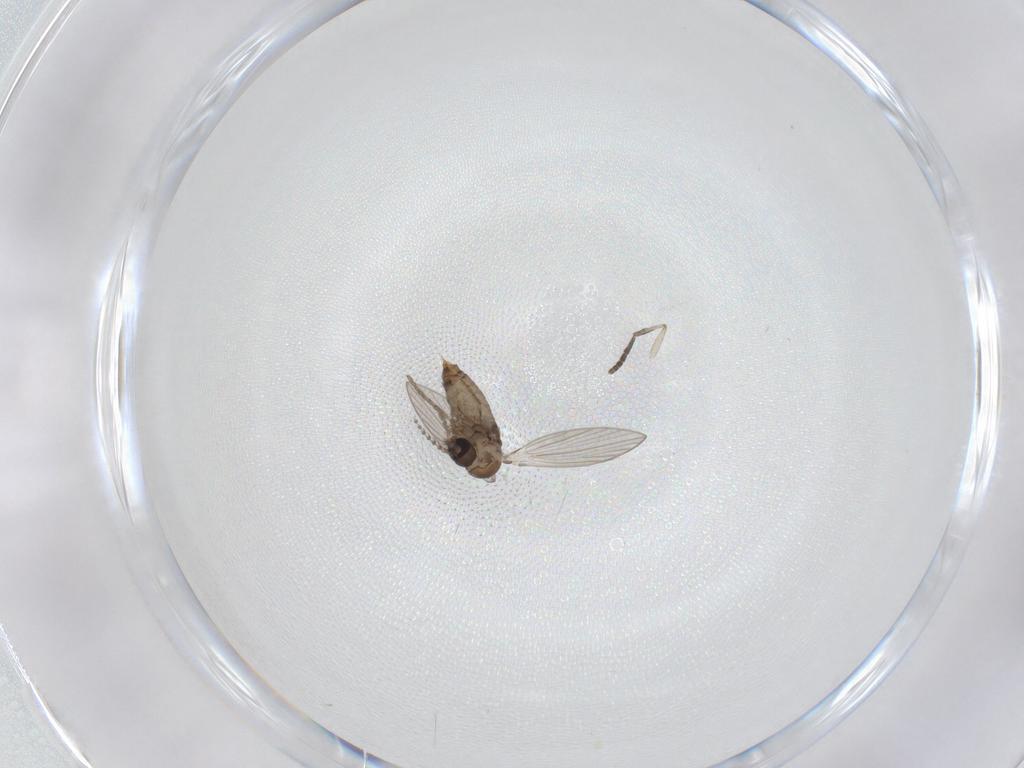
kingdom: Animalia
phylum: Arthropoda
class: Insecta
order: Diptera
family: Psychodidae
